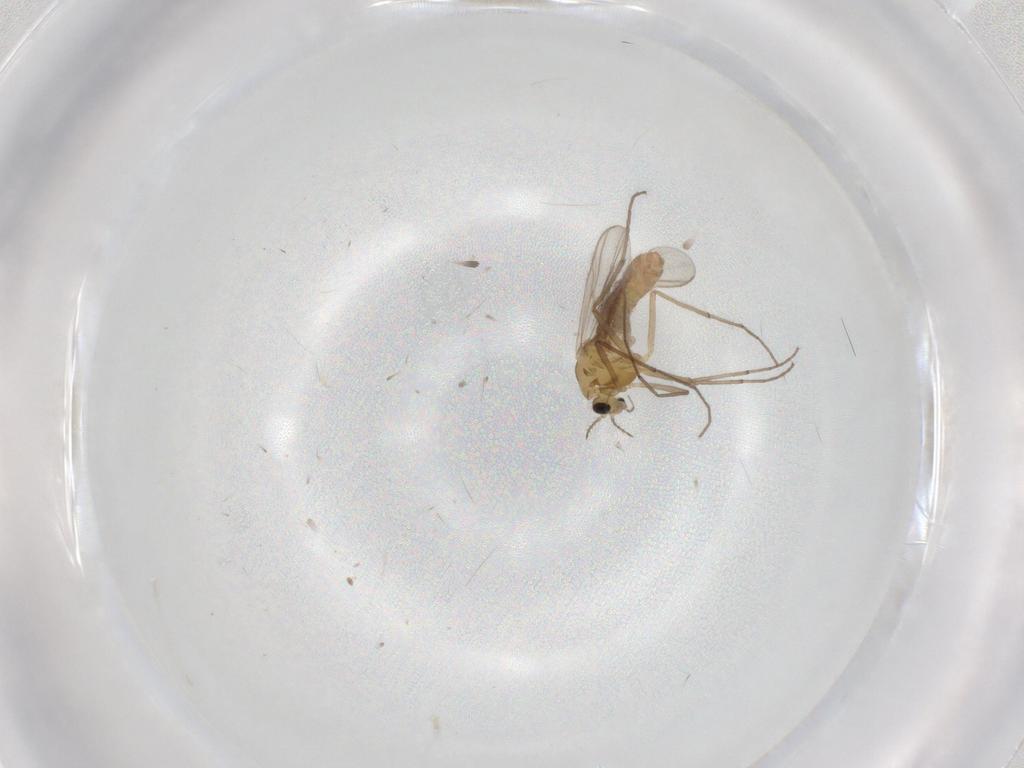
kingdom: Animalia
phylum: Arthropoda
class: Insecta
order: Diptera
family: Chironomidae
